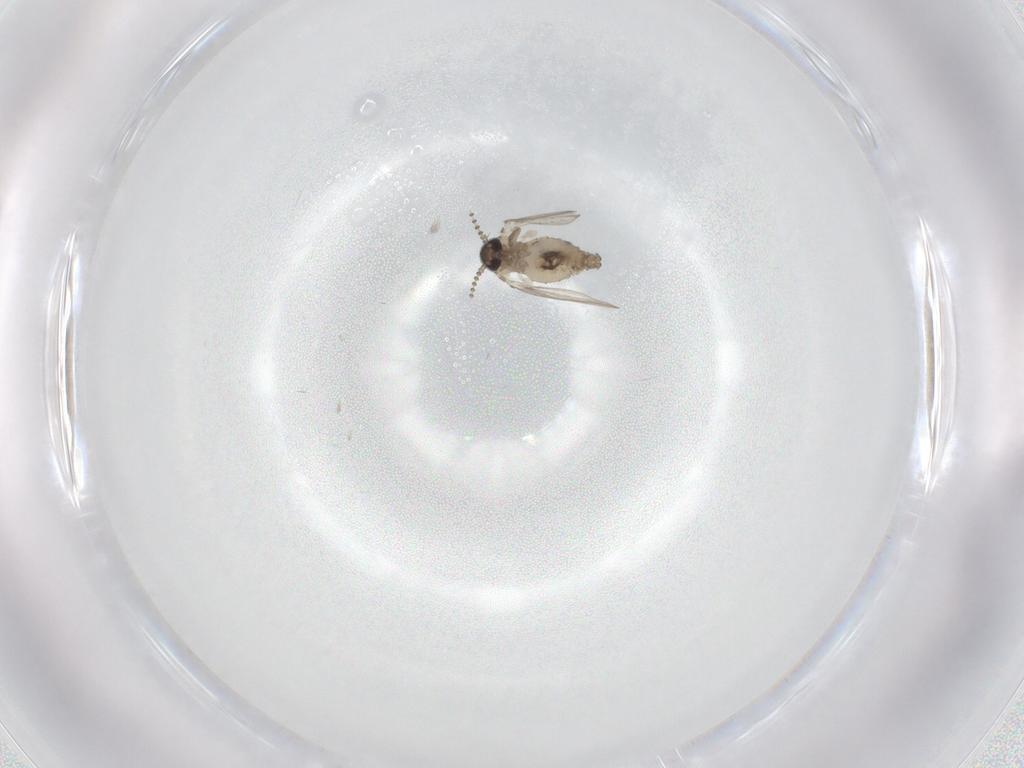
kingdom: Animalia
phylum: Arthropoda
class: Insecta
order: Diptera
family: Psychodidae
